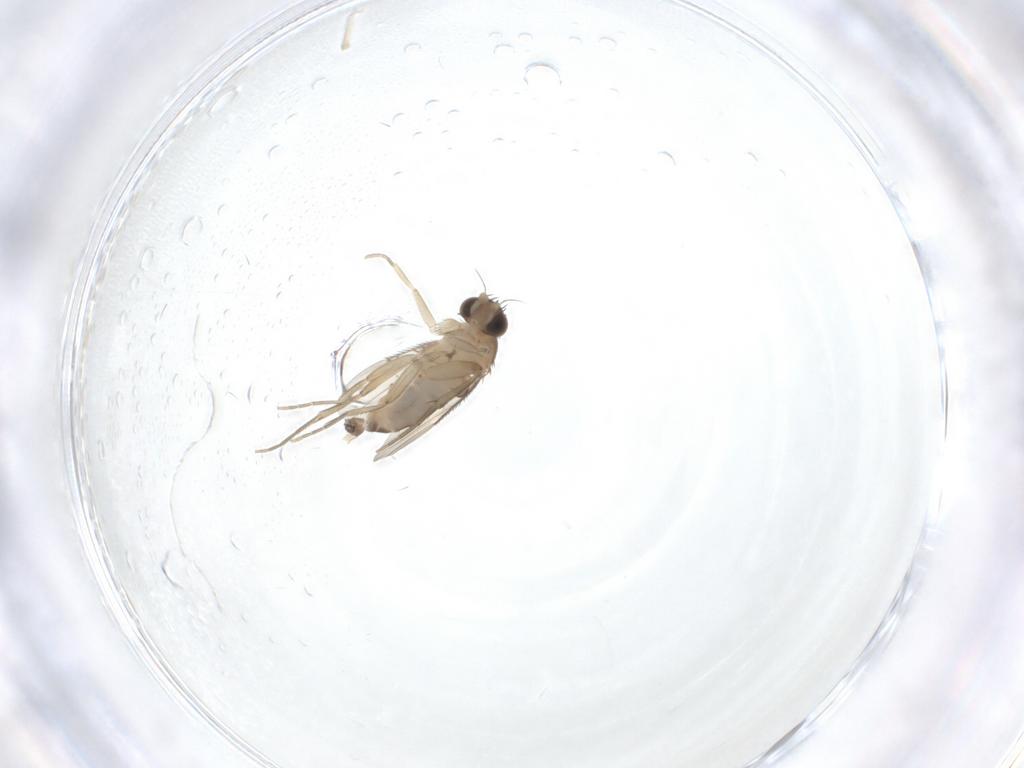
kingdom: Animalia
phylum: Arthropoda
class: Insecta
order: Diptera
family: Phoridae
